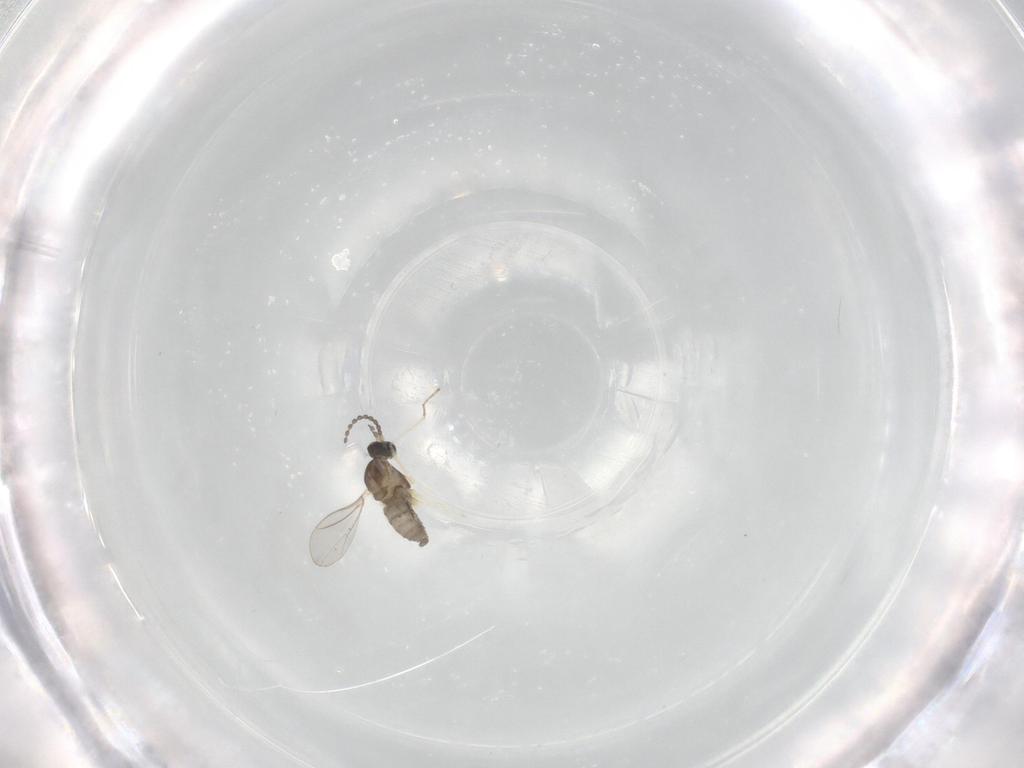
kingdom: Animalia
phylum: Arthropoda
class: Insecta
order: Diptera
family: Cecidomyiidae
